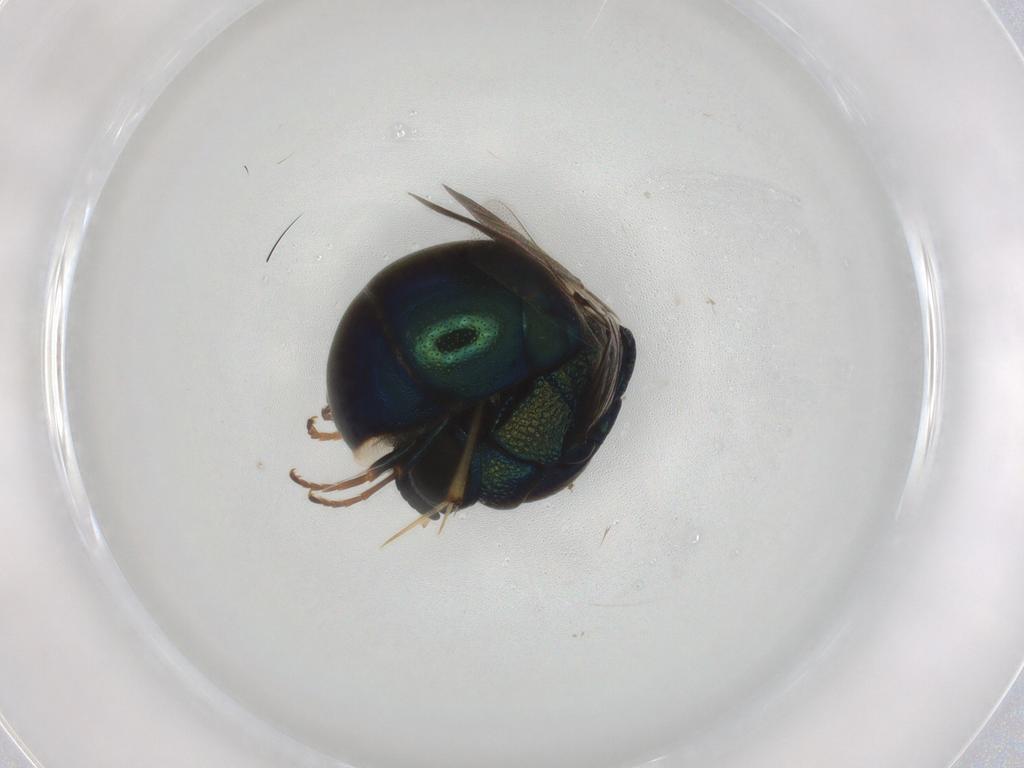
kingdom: Animalia
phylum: Arthropoda
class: Insecta
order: Hymenoptera
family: Chrysididae
